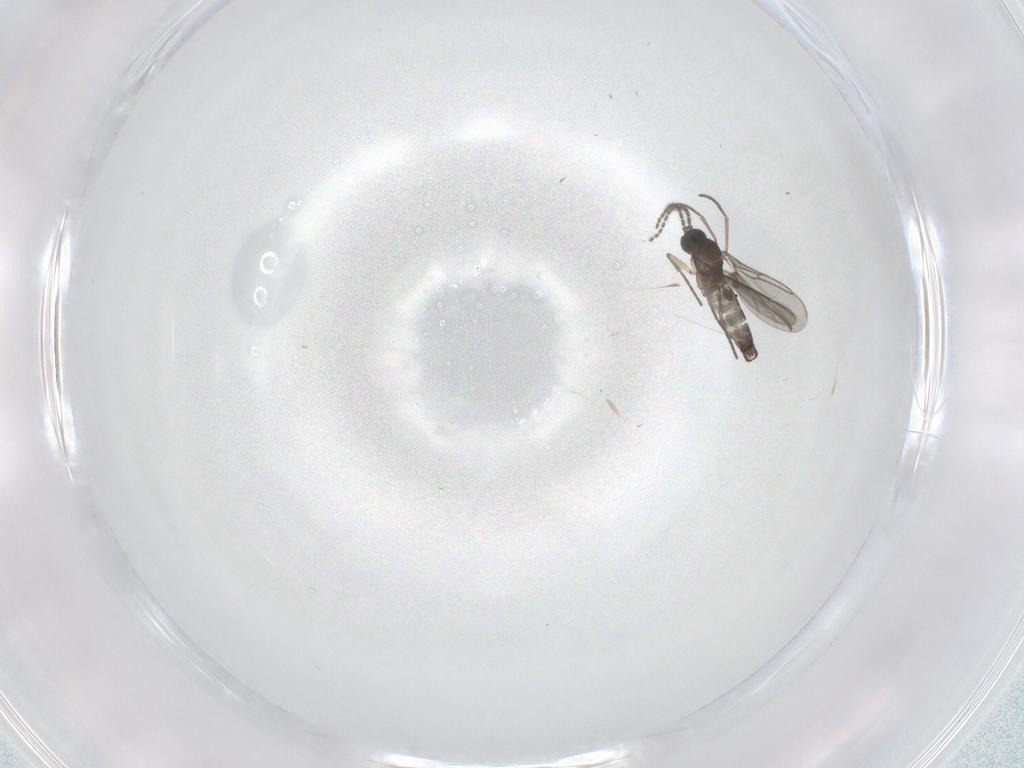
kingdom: Animalia
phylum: Arthropoda
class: Insecta
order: Diptera
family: Sciaridae
